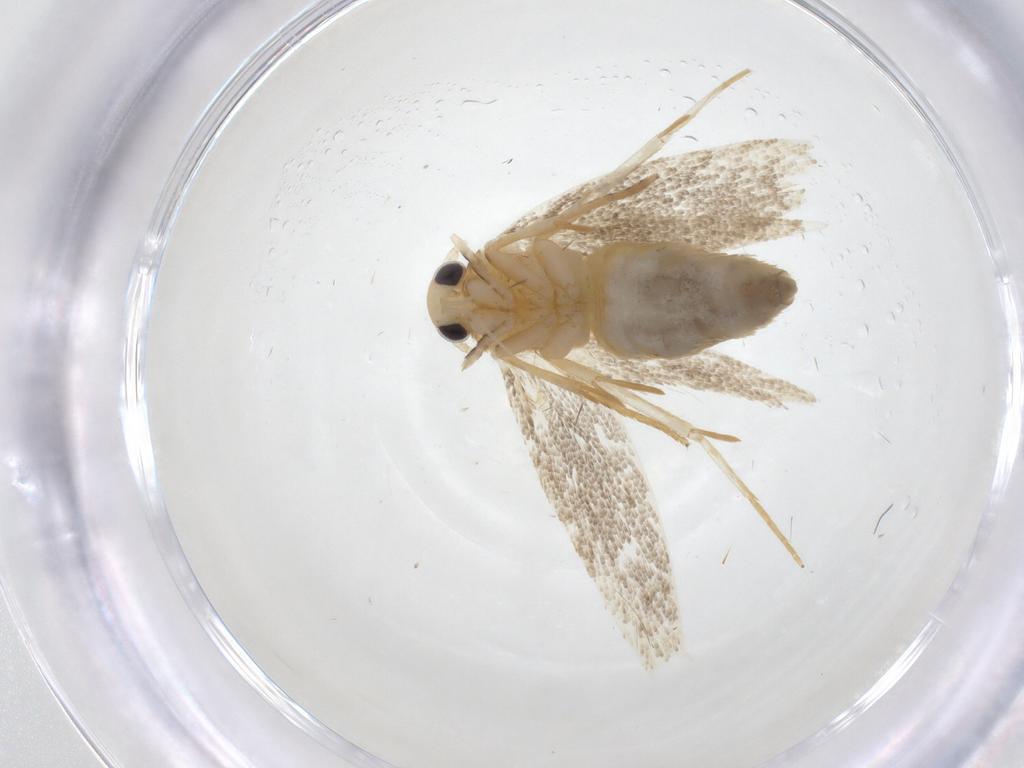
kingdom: Animalia
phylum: Arthropoda
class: Insecta
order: Lepidoptera
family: Erebidae
